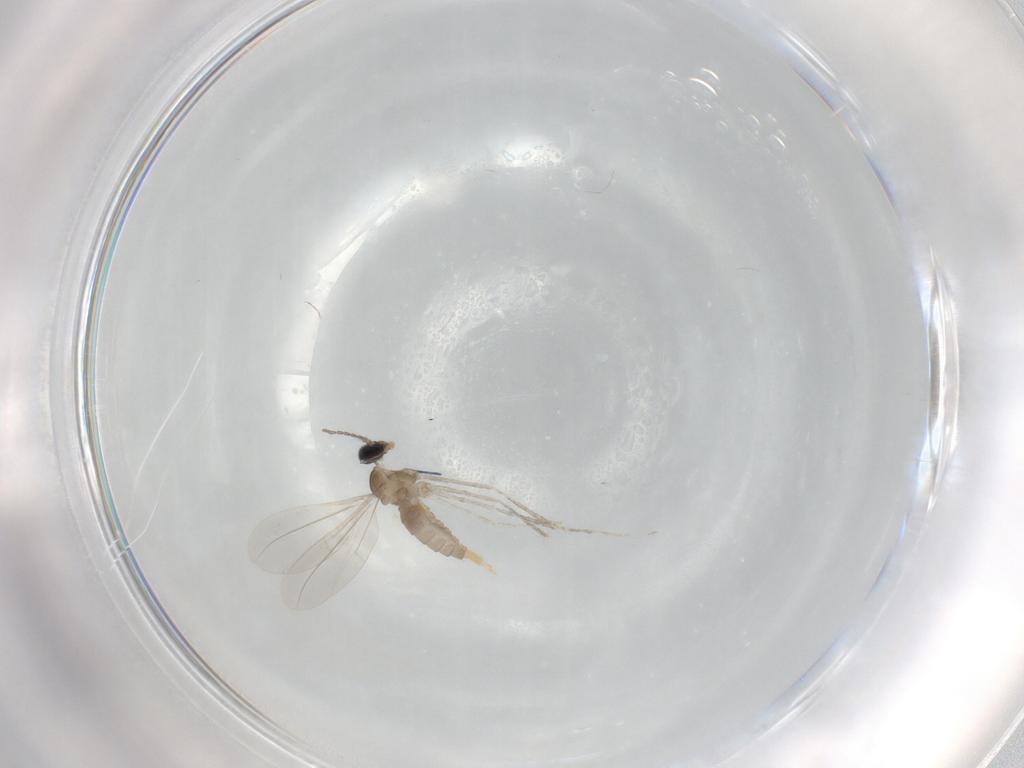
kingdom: Animalia
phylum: Arthropoda
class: Insecta
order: Diptera
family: Cecidomyiidae
